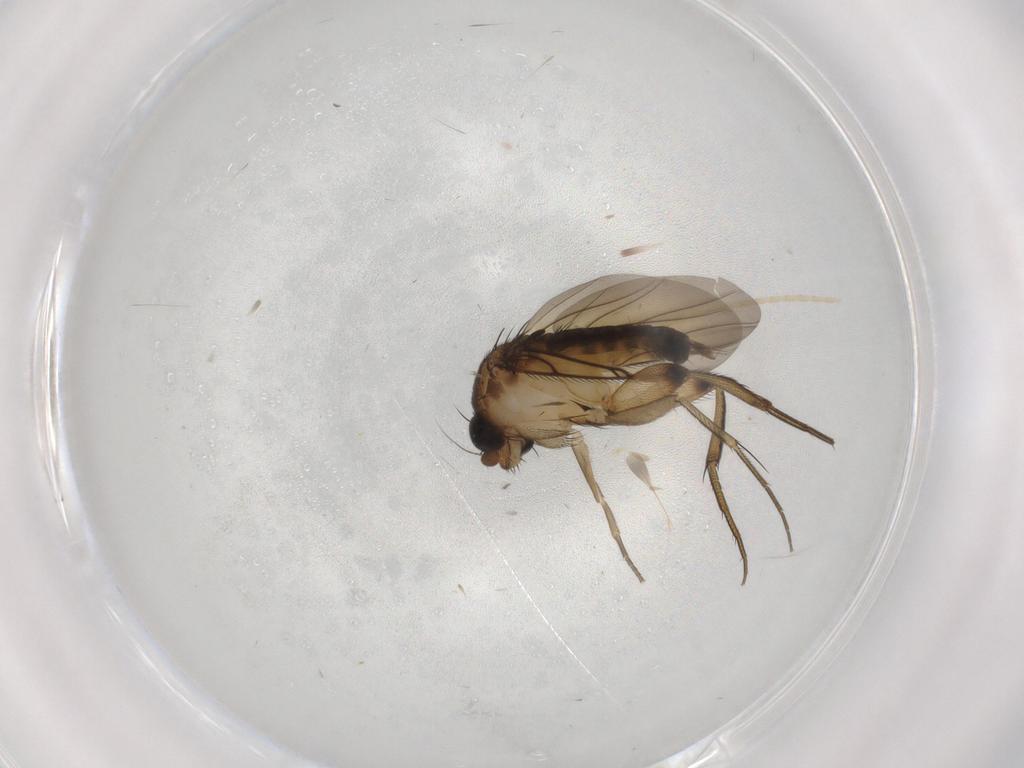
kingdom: Animalia
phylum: Arthropoda
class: Insecta
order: Diptera
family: Phoridae
